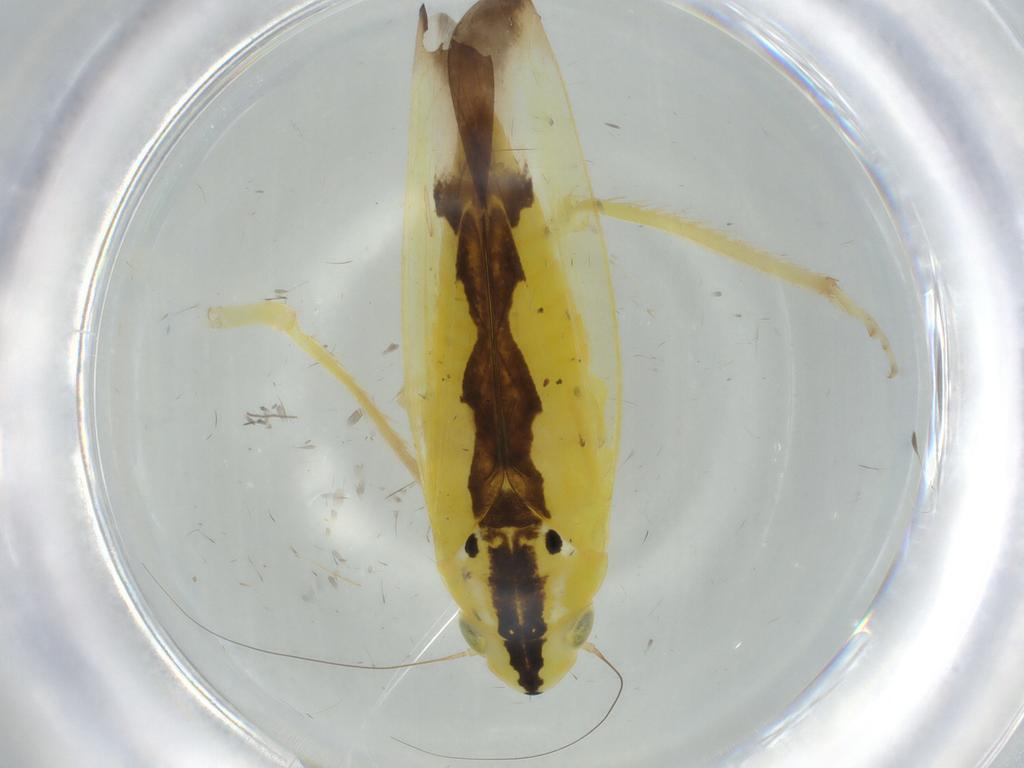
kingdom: Animalia
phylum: Arthropoda
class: Insecta
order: Hemiptera
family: Cicadellidae
